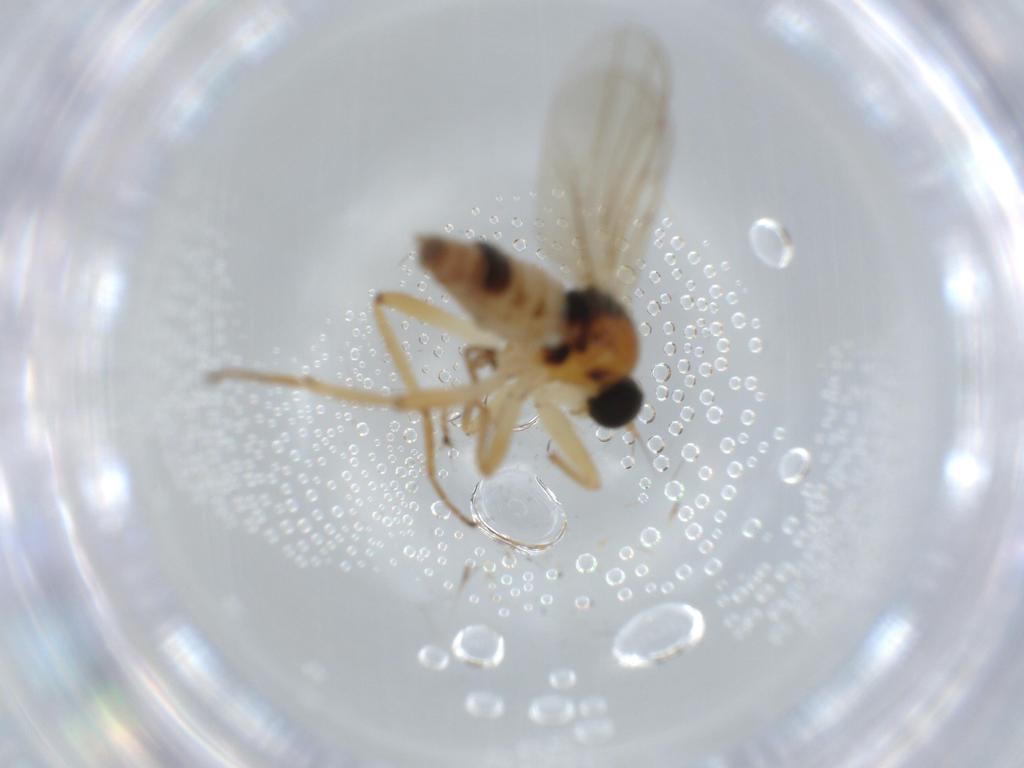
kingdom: Animalia
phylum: Arthropoda
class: Insecta
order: Diptera
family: Hybotidae
